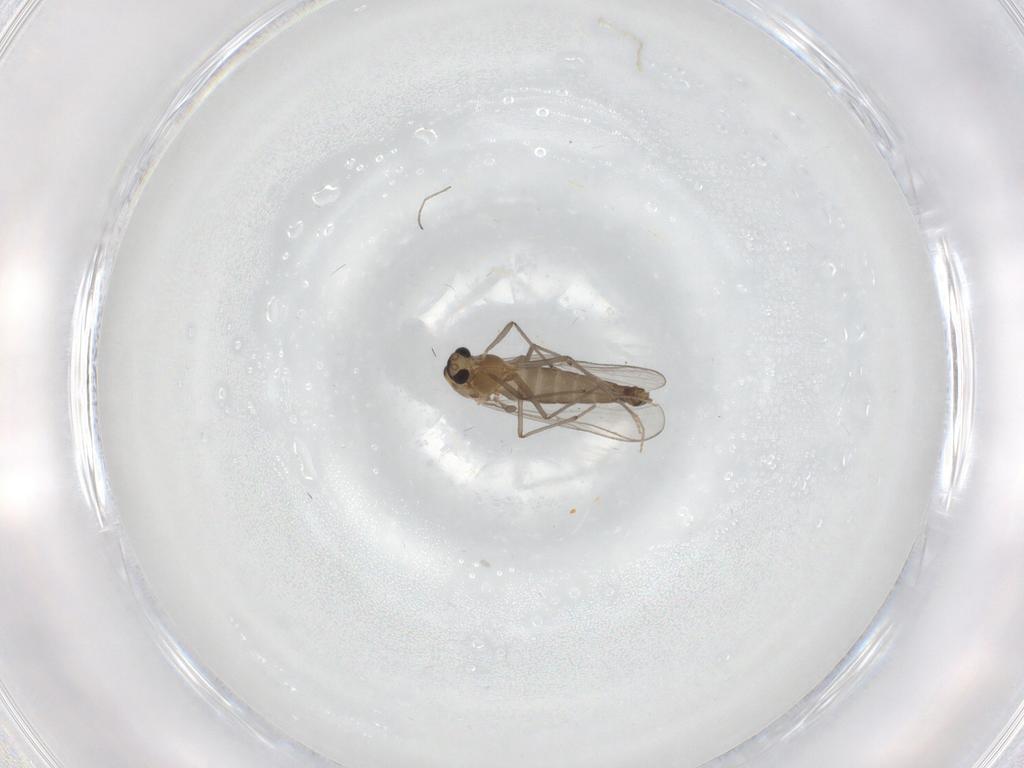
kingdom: Animalia
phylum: Arthropoda
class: Insecta
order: Diptera
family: Chironomidae
